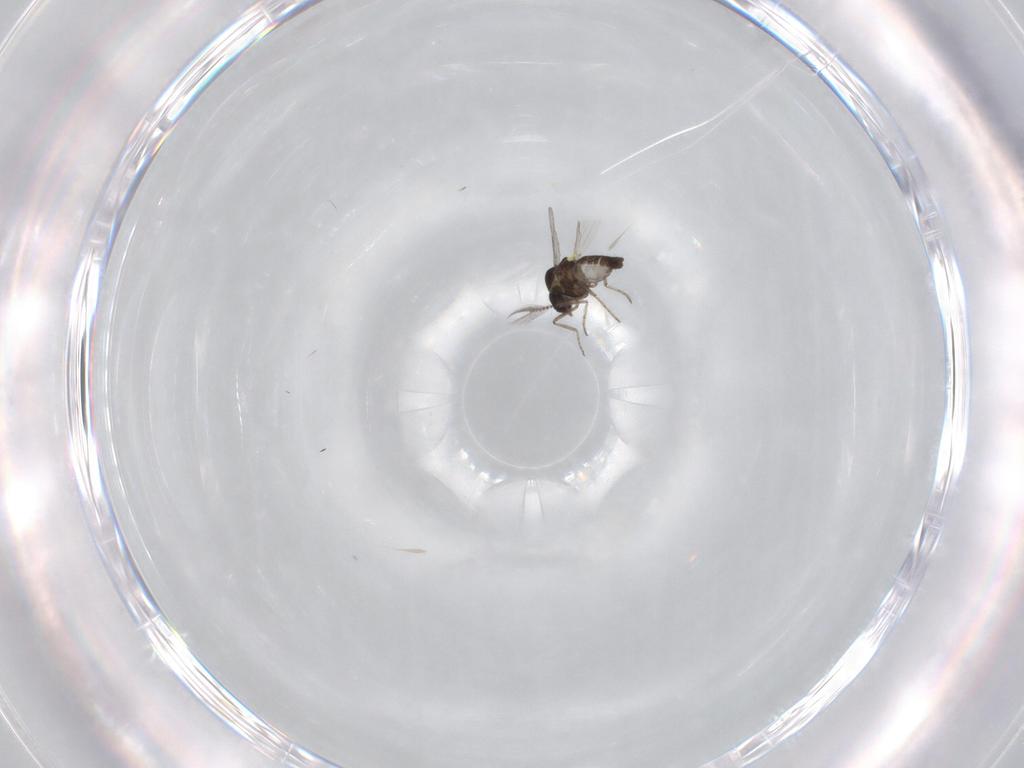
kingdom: Animalia
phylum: Arthropoda
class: Insecta
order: Diptera
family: Ceratopogonidae
